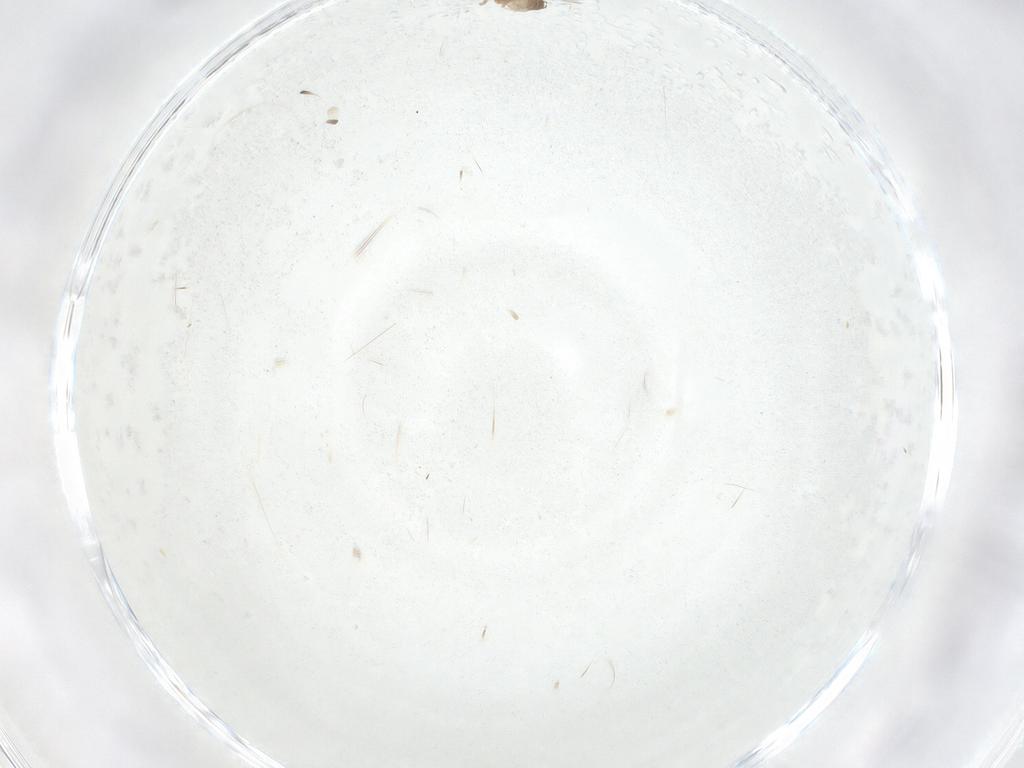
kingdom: Animalia
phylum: Arthropoda
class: Insecta
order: Diptera
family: Cecidomyiidae
